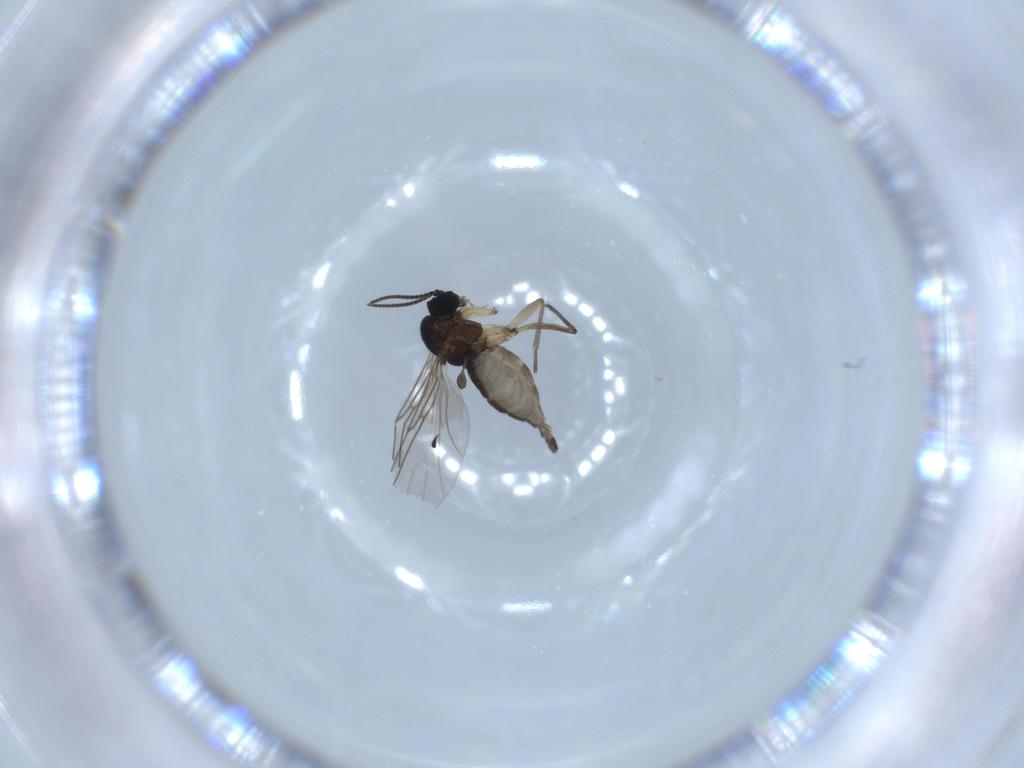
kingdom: Animalia
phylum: Arthropoda
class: Insecta
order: Diptera
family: Sciaridae
